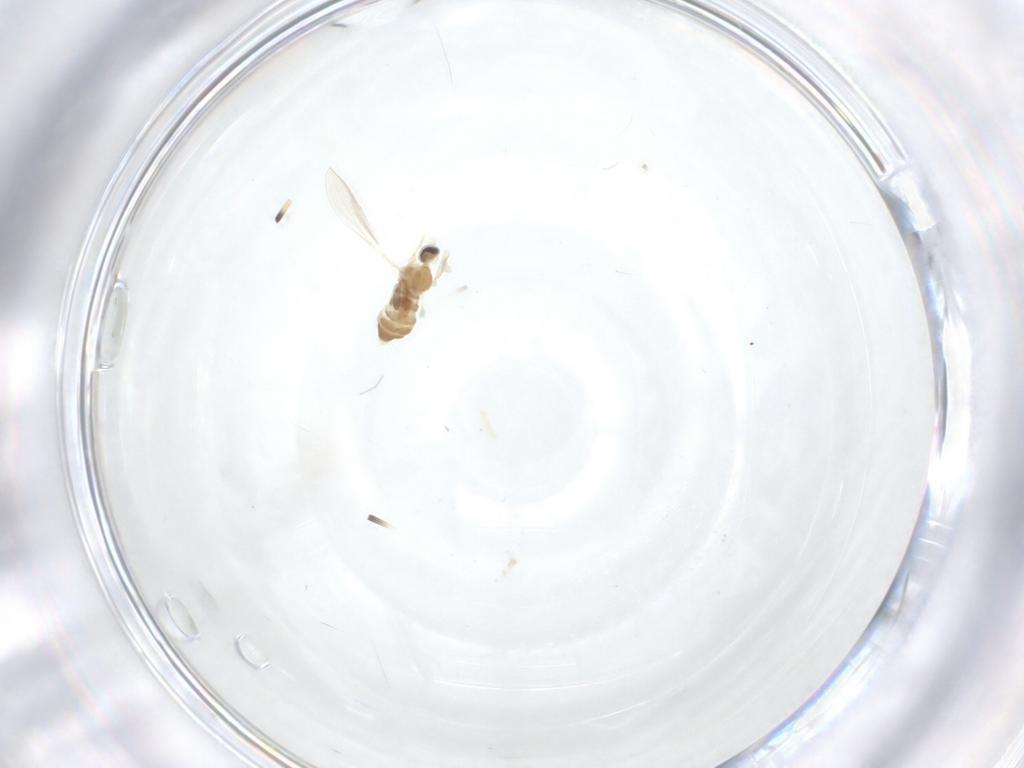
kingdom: Animalia
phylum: Arthropoda
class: Insecta
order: Diptera
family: Cecidomyiidae
